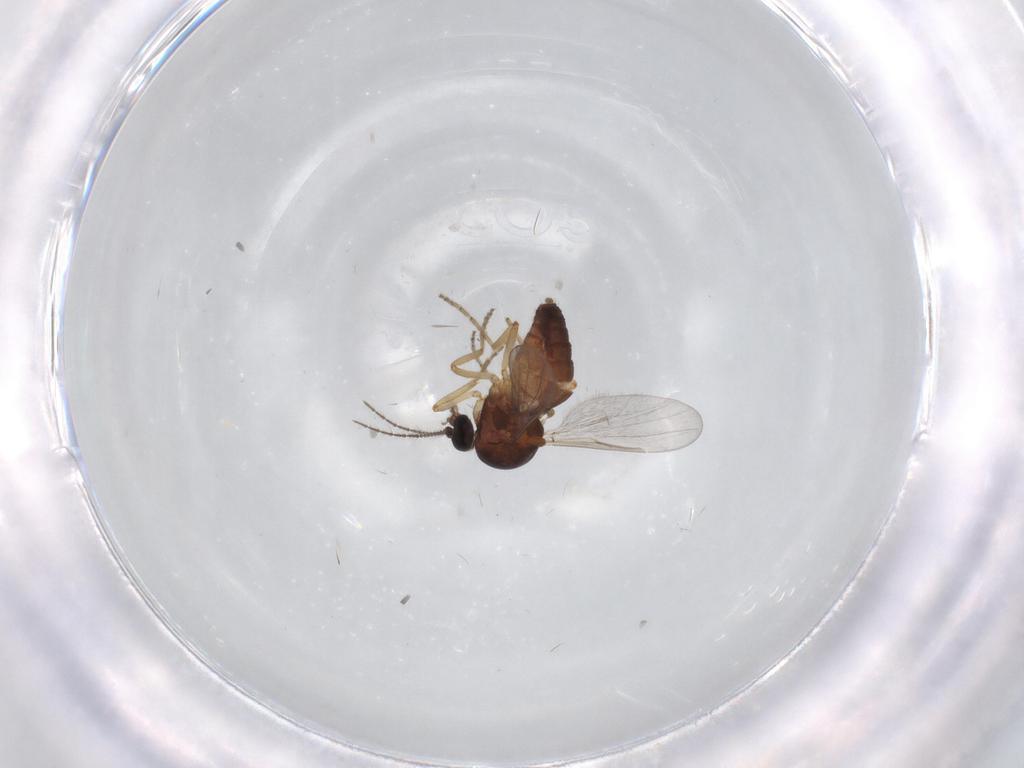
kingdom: Animalia
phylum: Arthropoda
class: Insecta
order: Diptera
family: Ceratopogonidae
